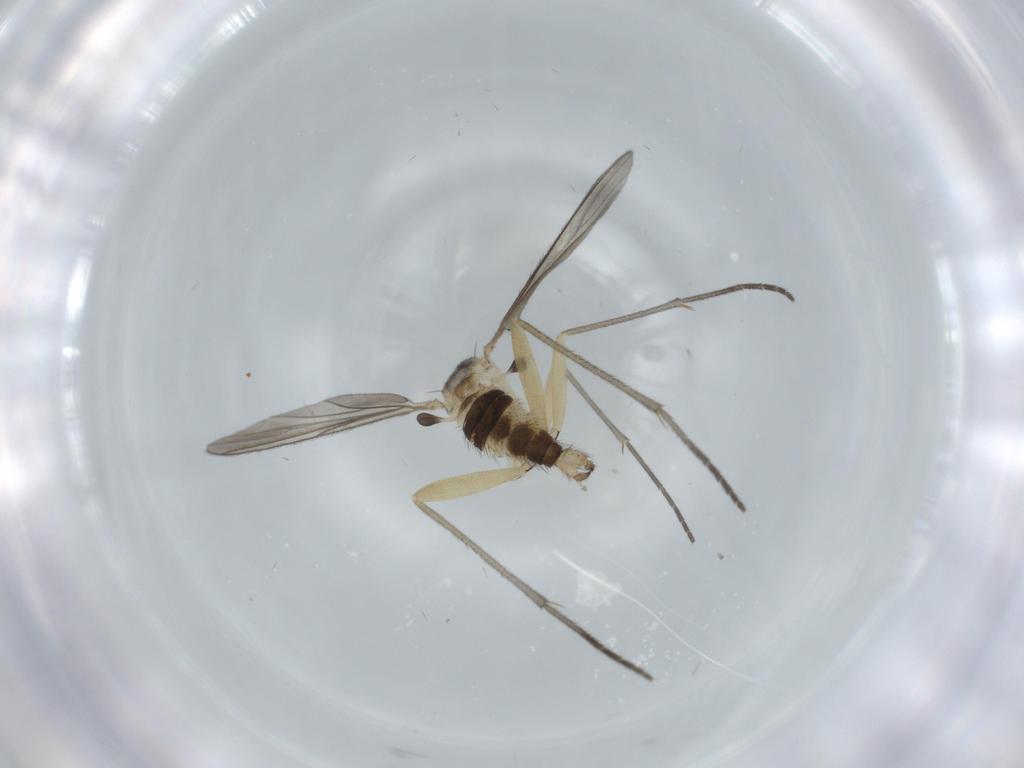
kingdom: Animalia
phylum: Arthropoda
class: Insecta
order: Diptera
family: Sciaridae
